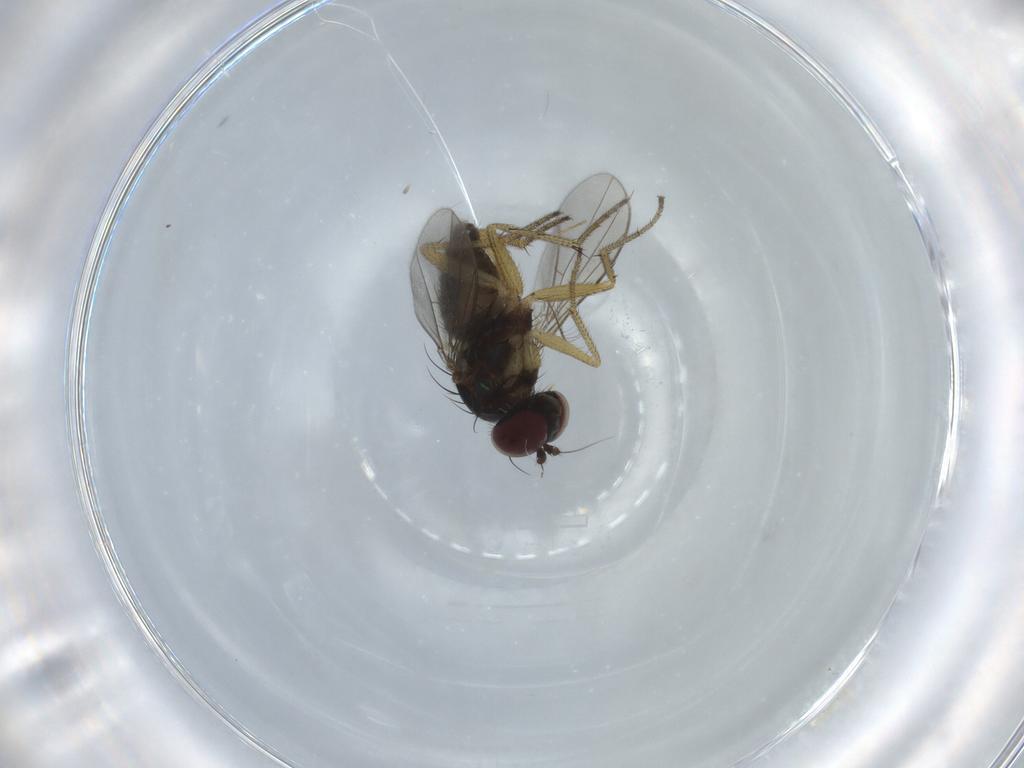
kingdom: Animalia
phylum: Arthropoda
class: Insecta
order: Diptera
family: Dolichopodidae
